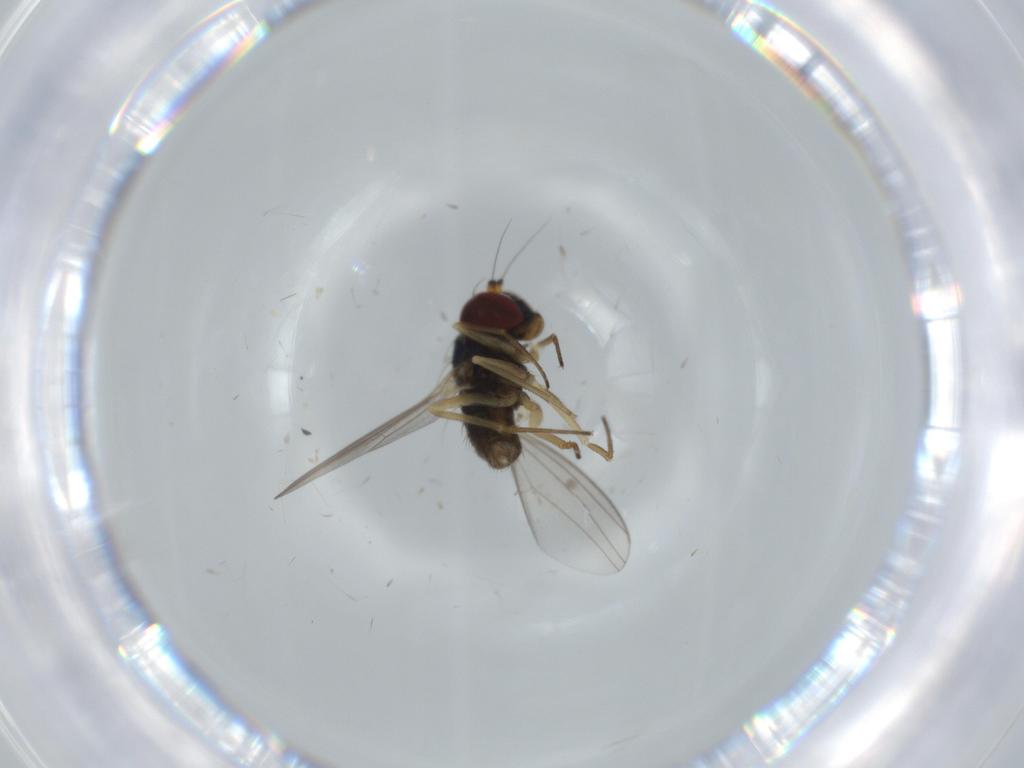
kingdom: Animalia
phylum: Arthropoda
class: Insecta
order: Diptera
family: Dolichopodidae
